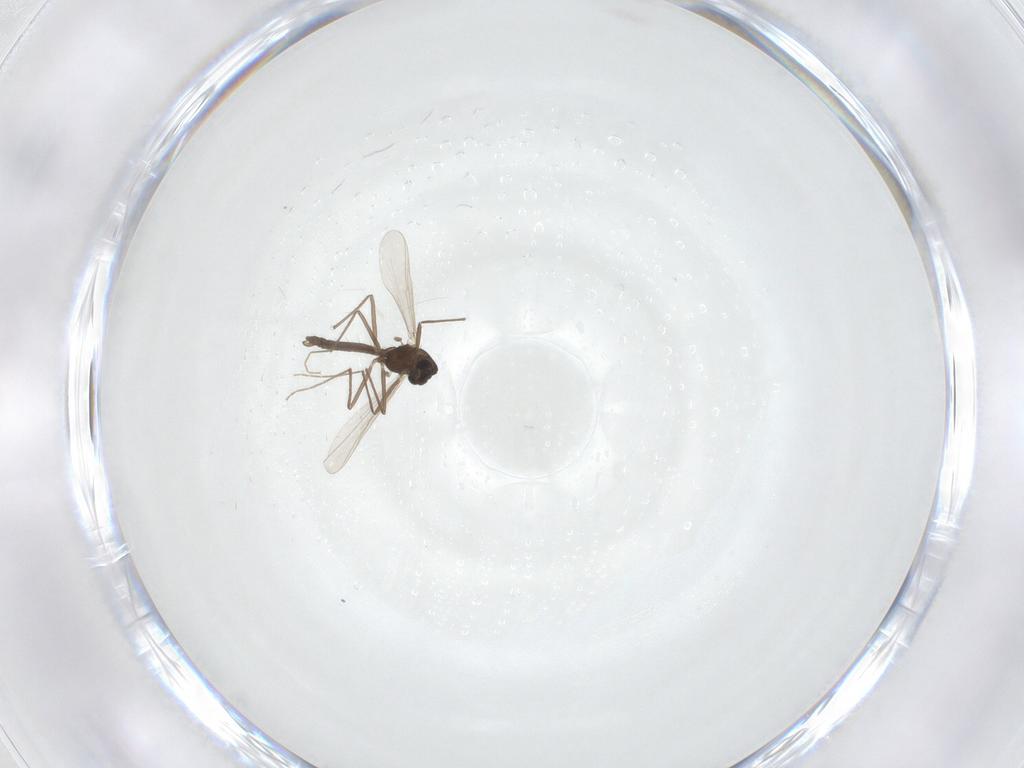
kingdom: Animalia
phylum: Arthropoda
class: Insecta
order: Diptera
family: Chironomidae
